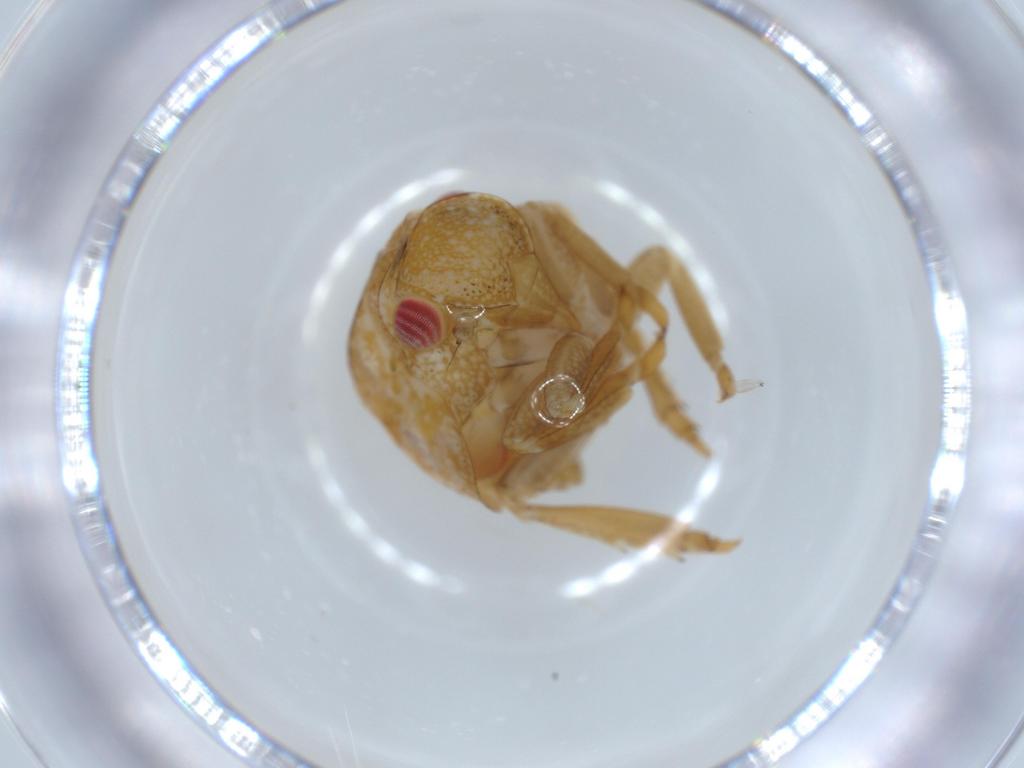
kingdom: Animalia
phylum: Arthropoda
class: Insecta
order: Hemiptera
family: Acanaloniidae
